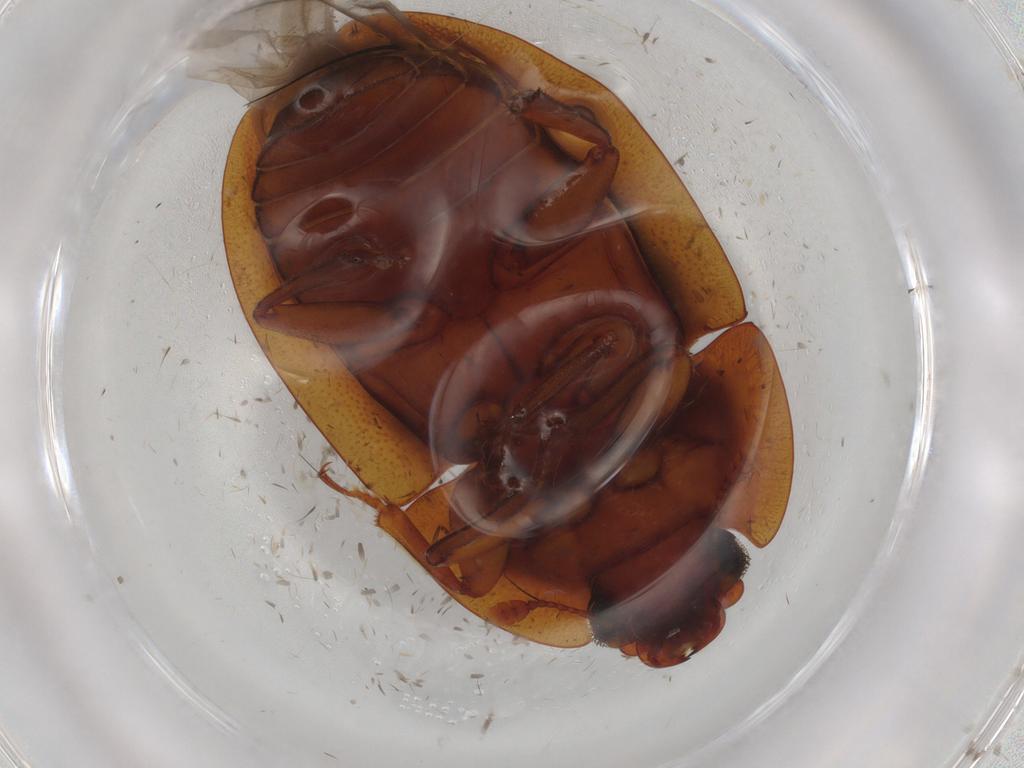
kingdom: Animalia
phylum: Arthropoda
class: Insecta
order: Coleoptera
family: Nitidulidae
